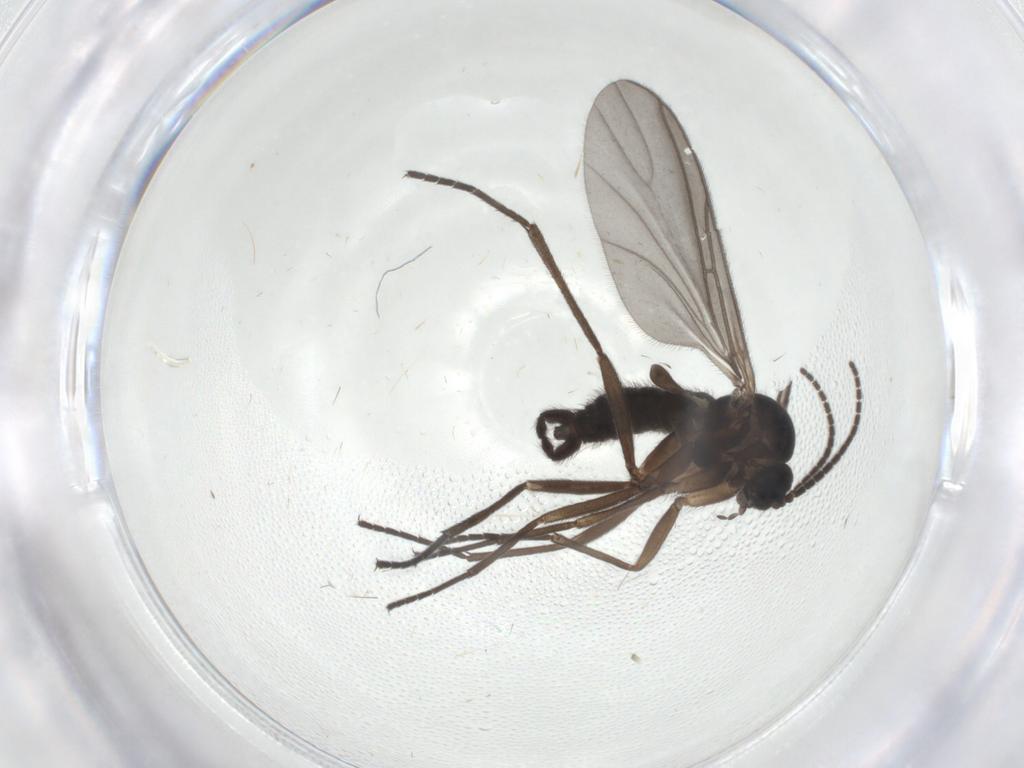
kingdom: Animalia
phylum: Arthropoda
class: Insecta
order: Diptera
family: Sciaridae
